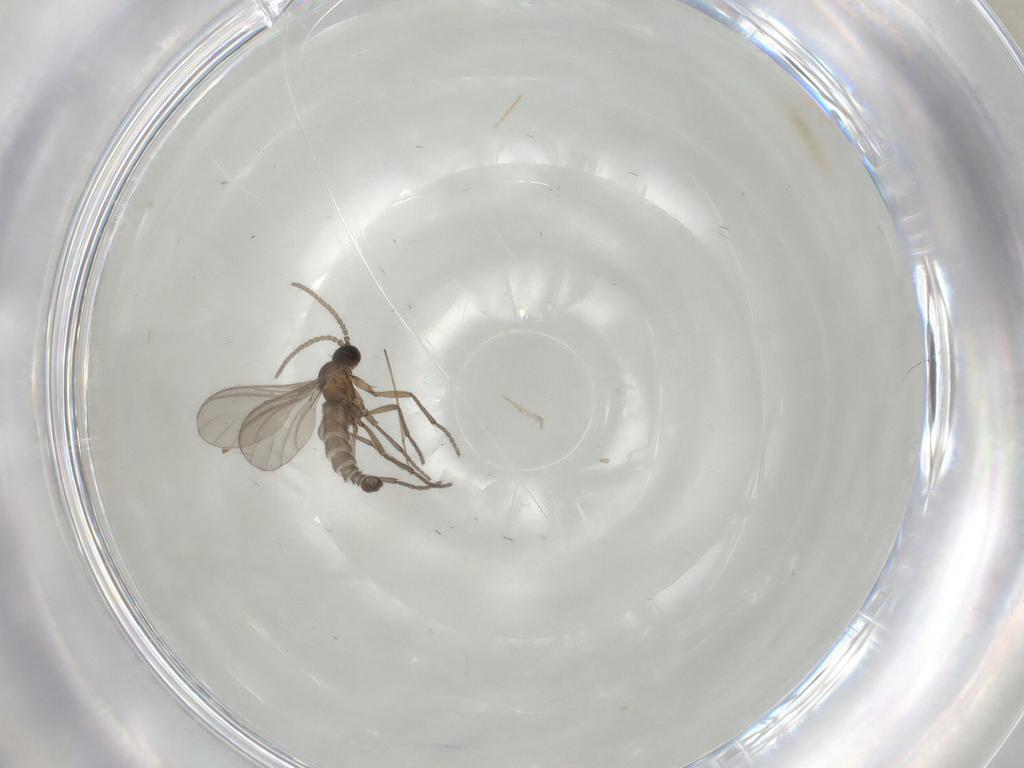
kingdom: Animalia
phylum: Arthropoda
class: Insecta
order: Diptera
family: Sciaridae
